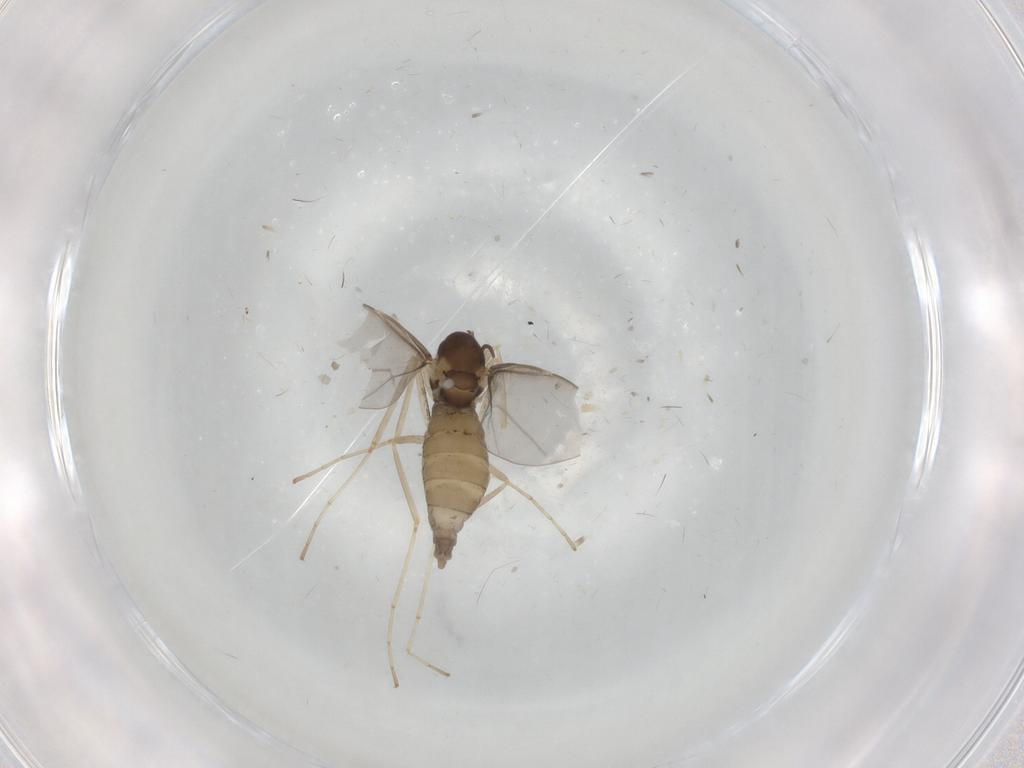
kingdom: Animalia
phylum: Arthropoda
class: Insecta
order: Diptera
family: Cecidomyiidae
